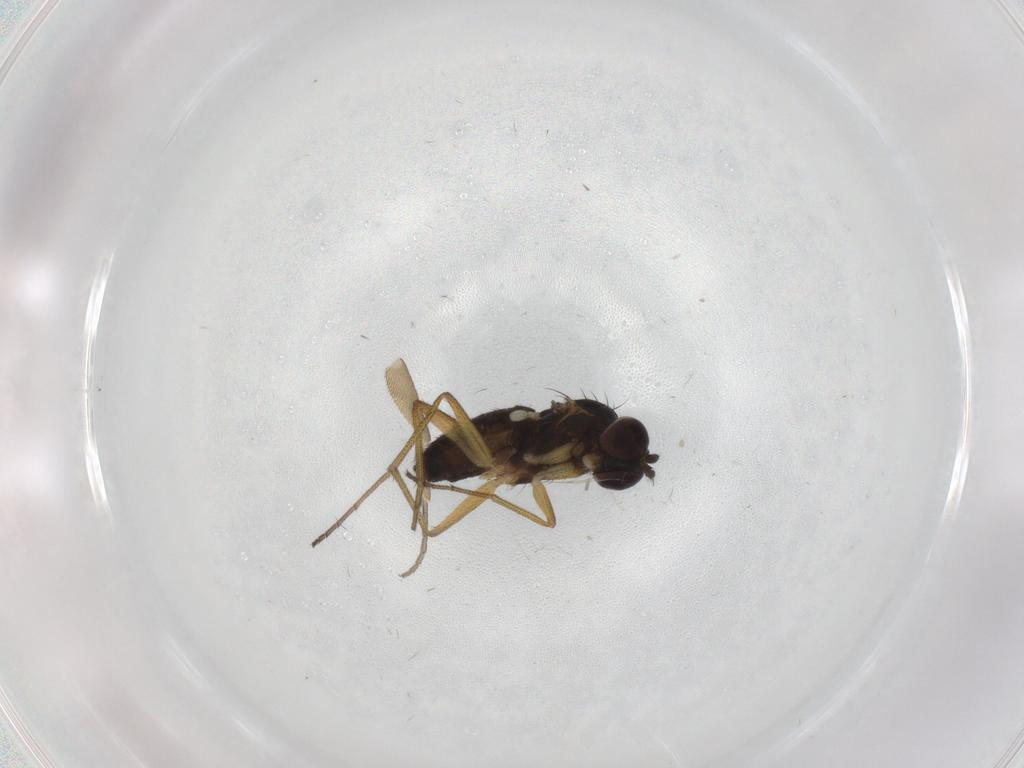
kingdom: Animalia
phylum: Arthropoda
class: Insecta
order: Diptera
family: Dolichopodidae
